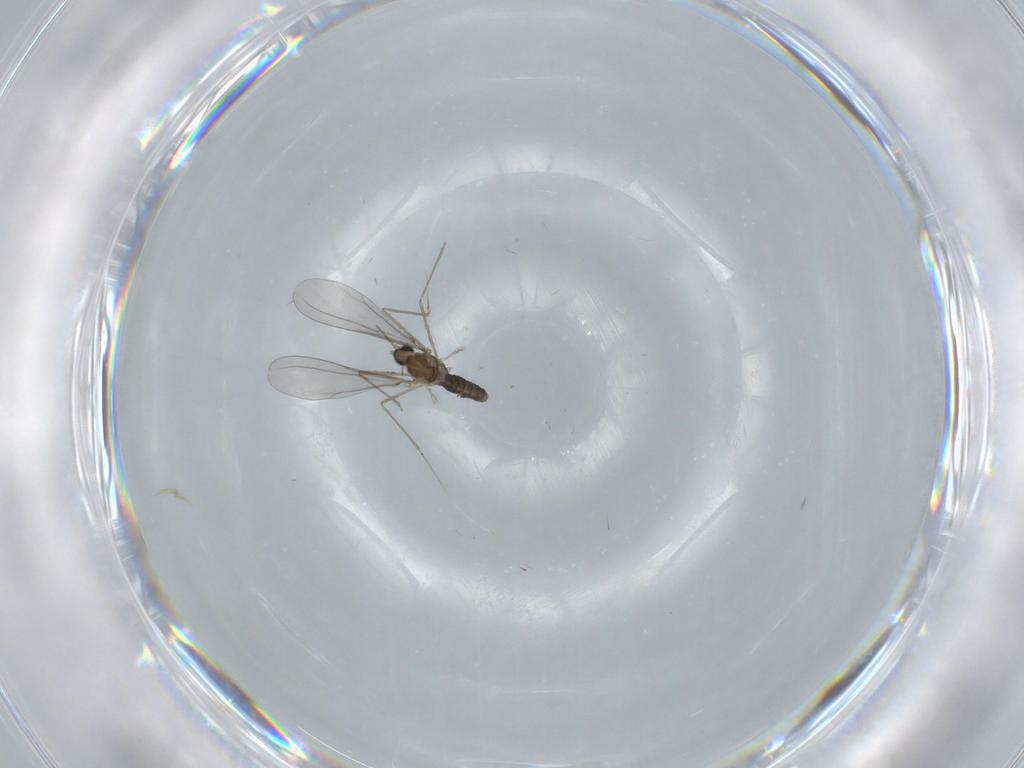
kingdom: Animalia
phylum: Arthropoda
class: Insecta
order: Diptera
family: Cecidomyiidae
